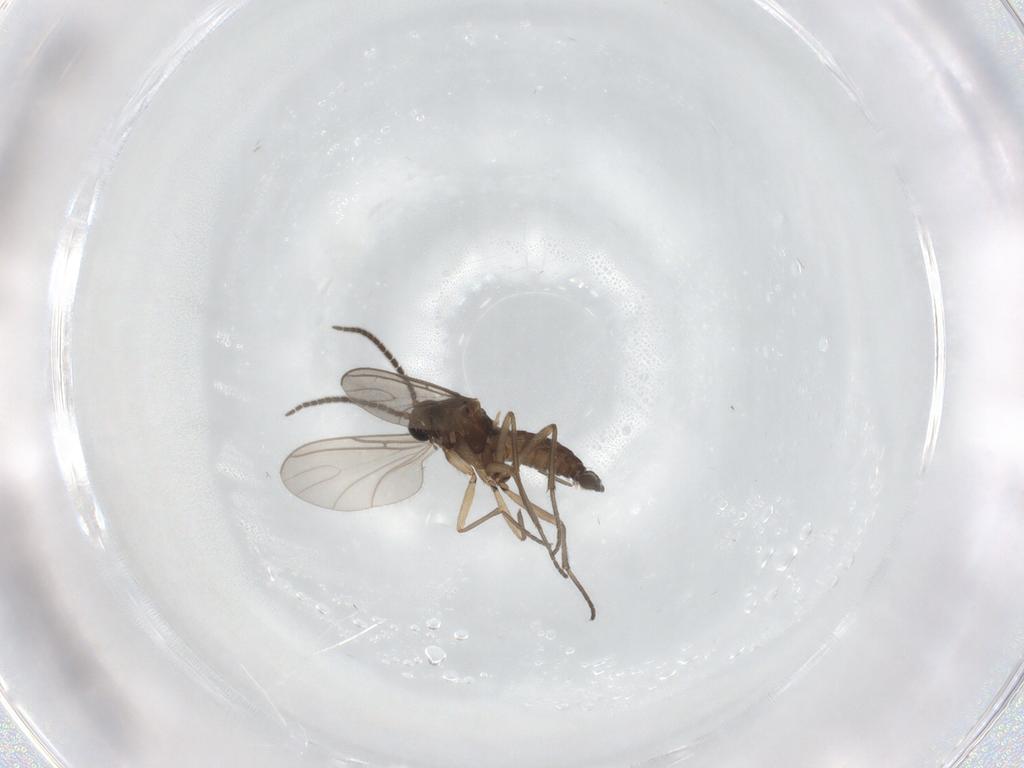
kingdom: Animalia
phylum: Arthropoda
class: Insecta
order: Diptera
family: Sciaridae
